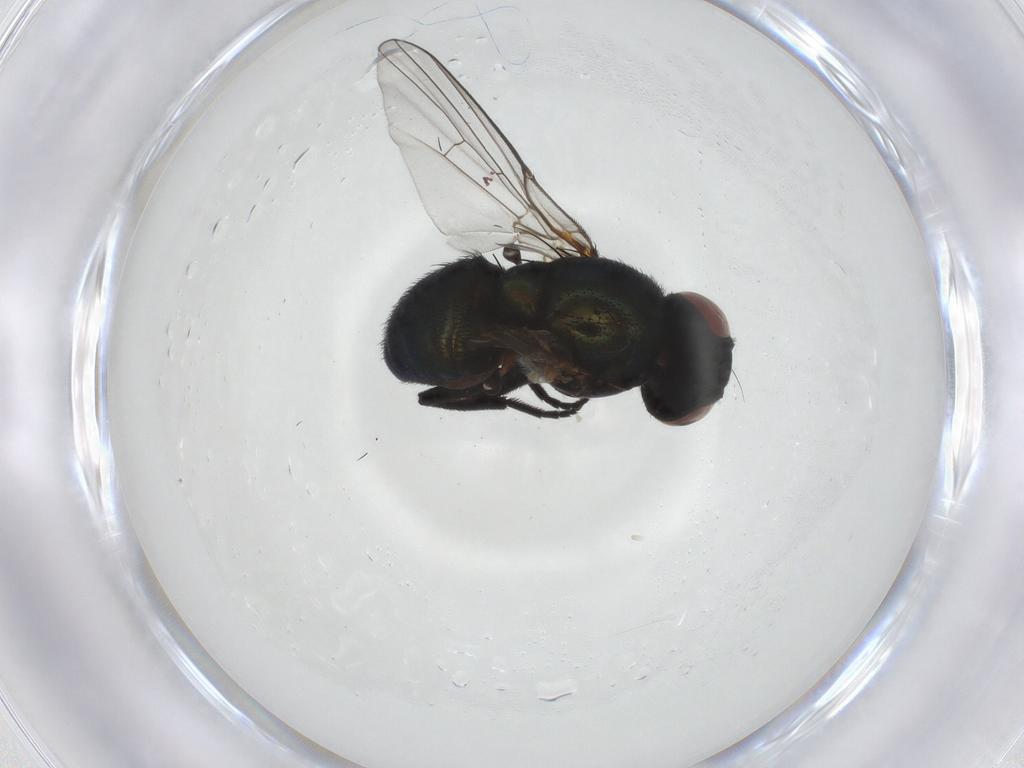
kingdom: Animalia
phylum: Arthropoda
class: Insecta
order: Diptera
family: Agromyzidae
